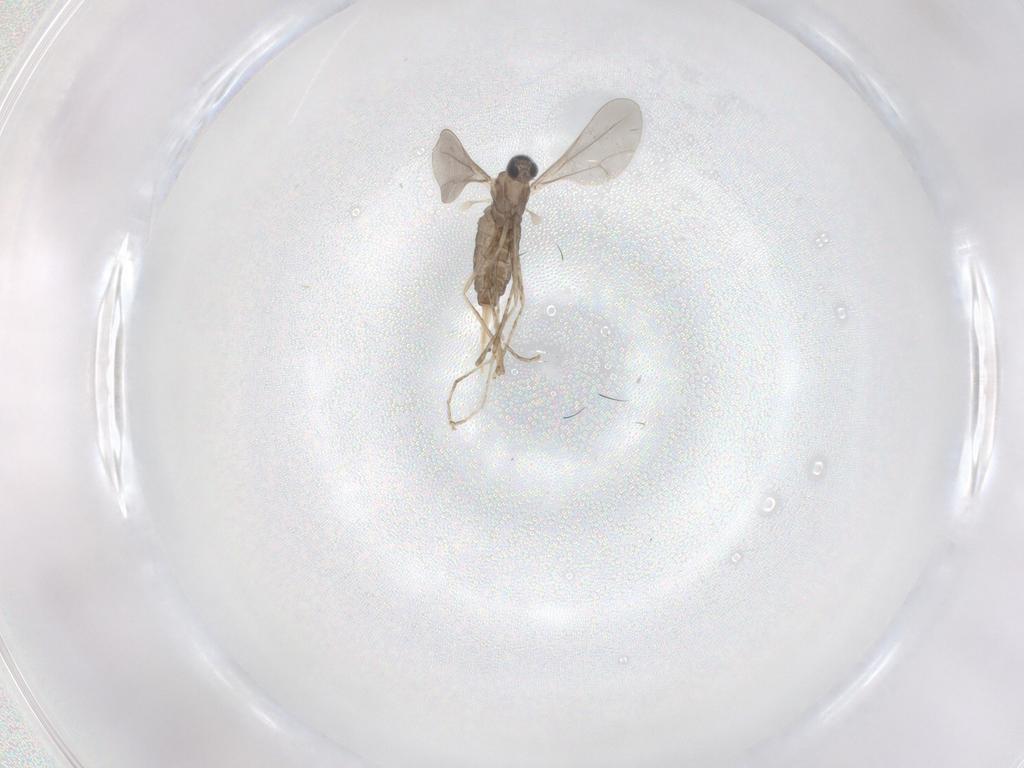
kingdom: Animalia
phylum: Arthropoda
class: Insecta
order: Diptera
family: Cecidomyiidae
